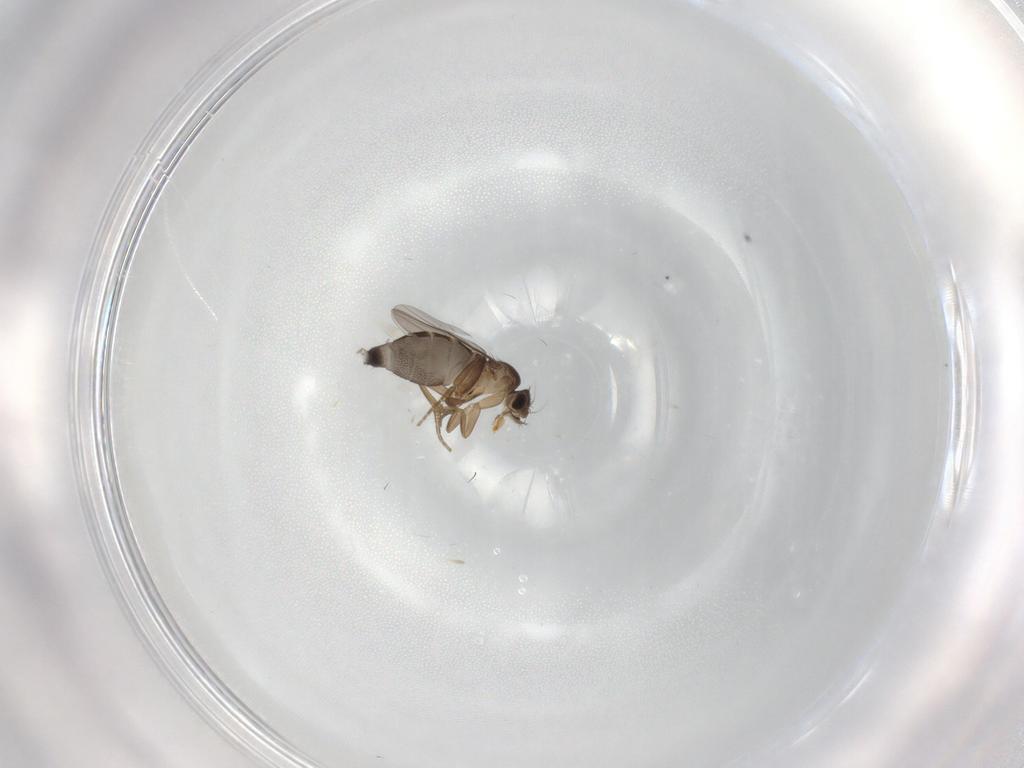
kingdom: Animalia
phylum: Arthropoda
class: Insecta
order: Diptera
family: Phoridae
